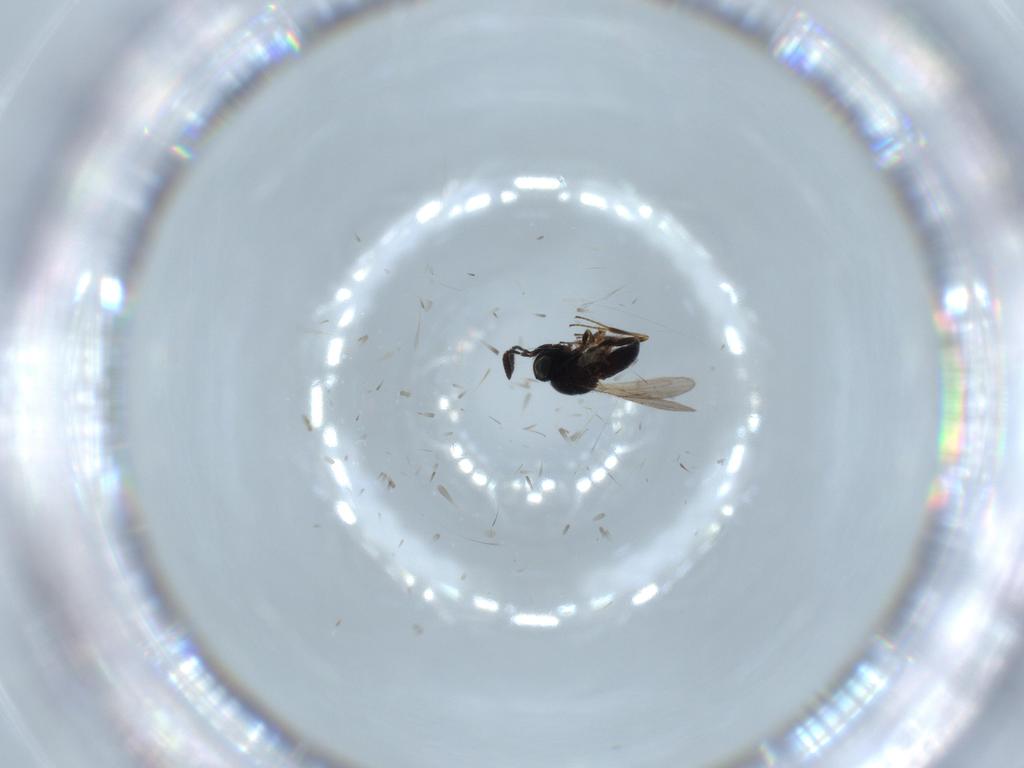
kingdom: Animalia
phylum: Arthropoda
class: Insecta
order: Hymenoptera
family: Scelionidae
